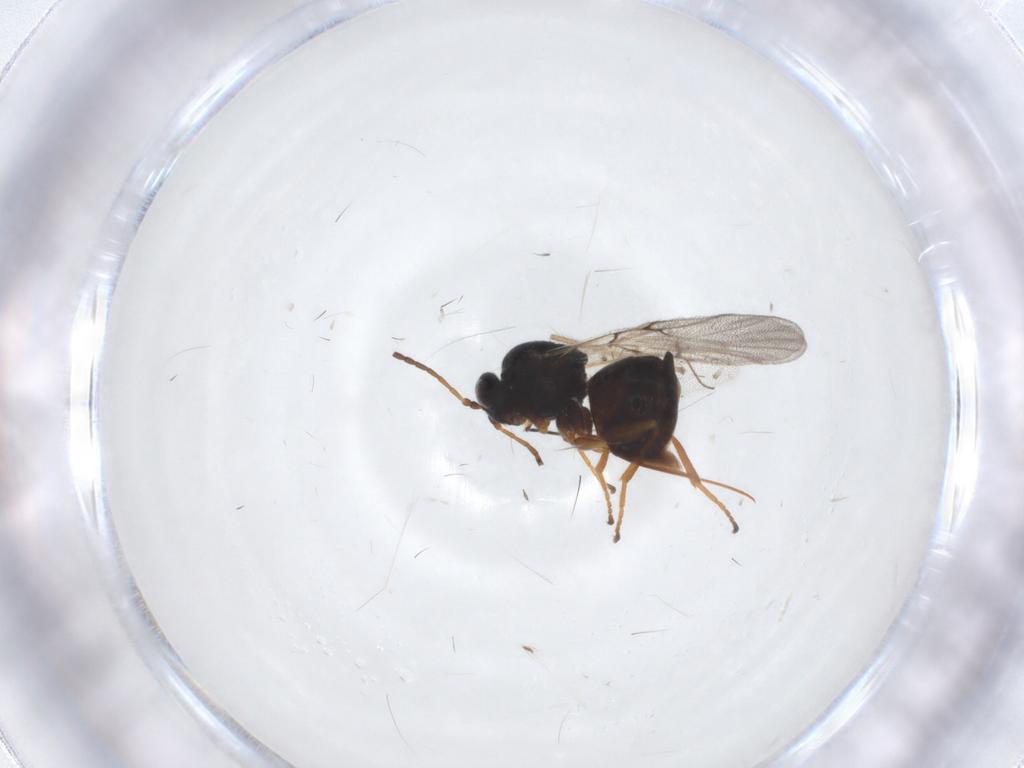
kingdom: Animalia
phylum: Arthropoda
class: Insecta
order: Hymenoptera
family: Cynipidae
